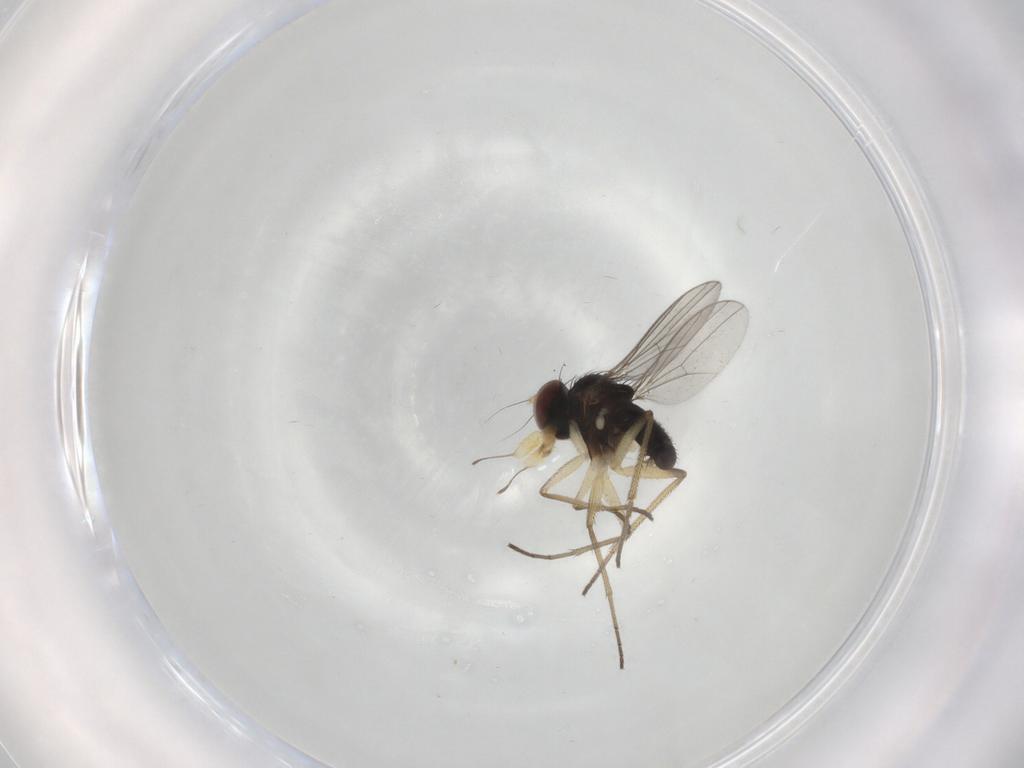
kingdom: Animalia
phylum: Arthropoda
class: Insecta
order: Diptera
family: Dolichopodidae
